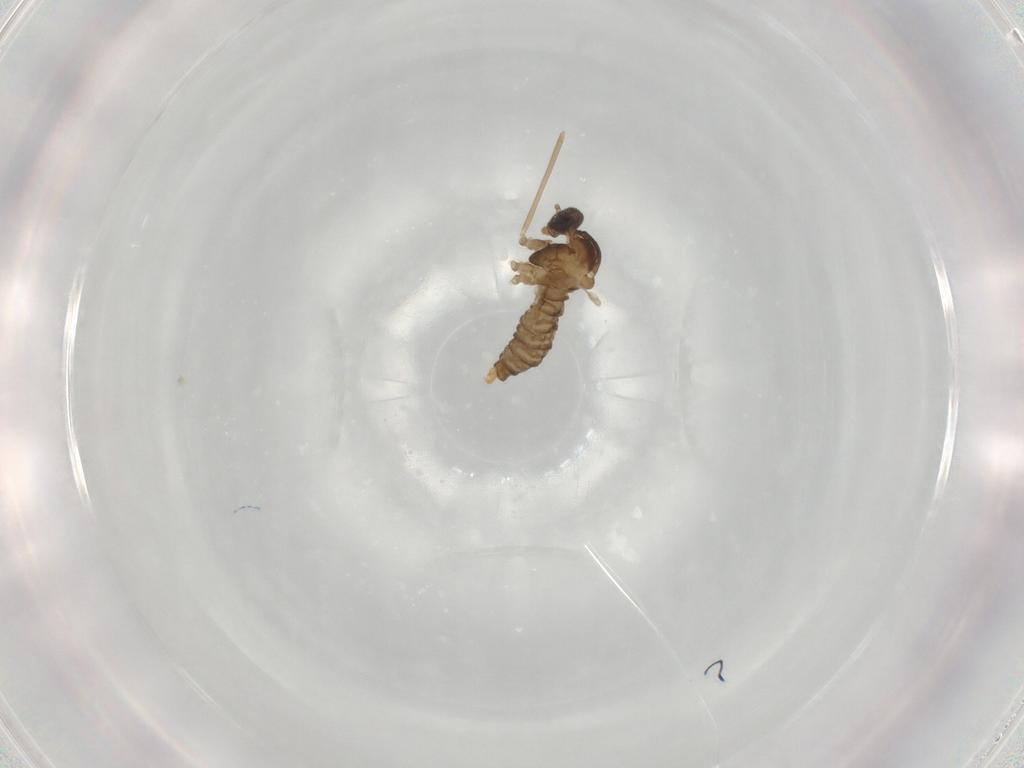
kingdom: Animalia
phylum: Arthropoda
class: Insecta
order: Diptera
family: Cecidomyiidae
